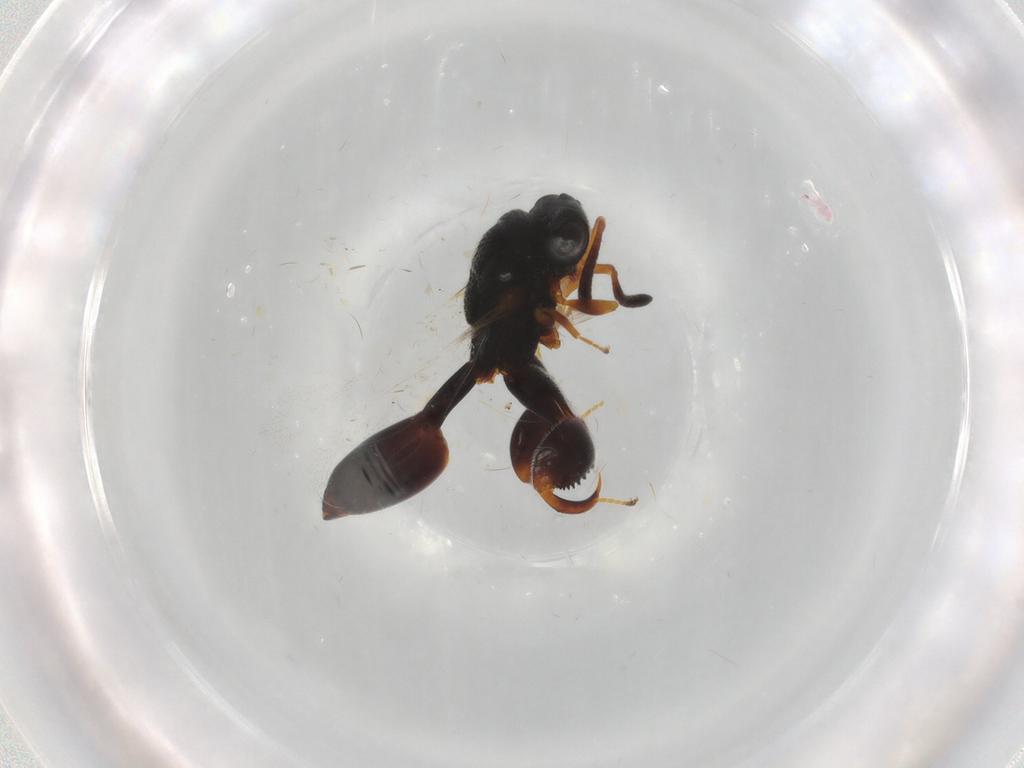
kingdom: Animalia
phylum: Arthropoda
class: Insecta
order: Hymenoptera
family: Chalcididae
